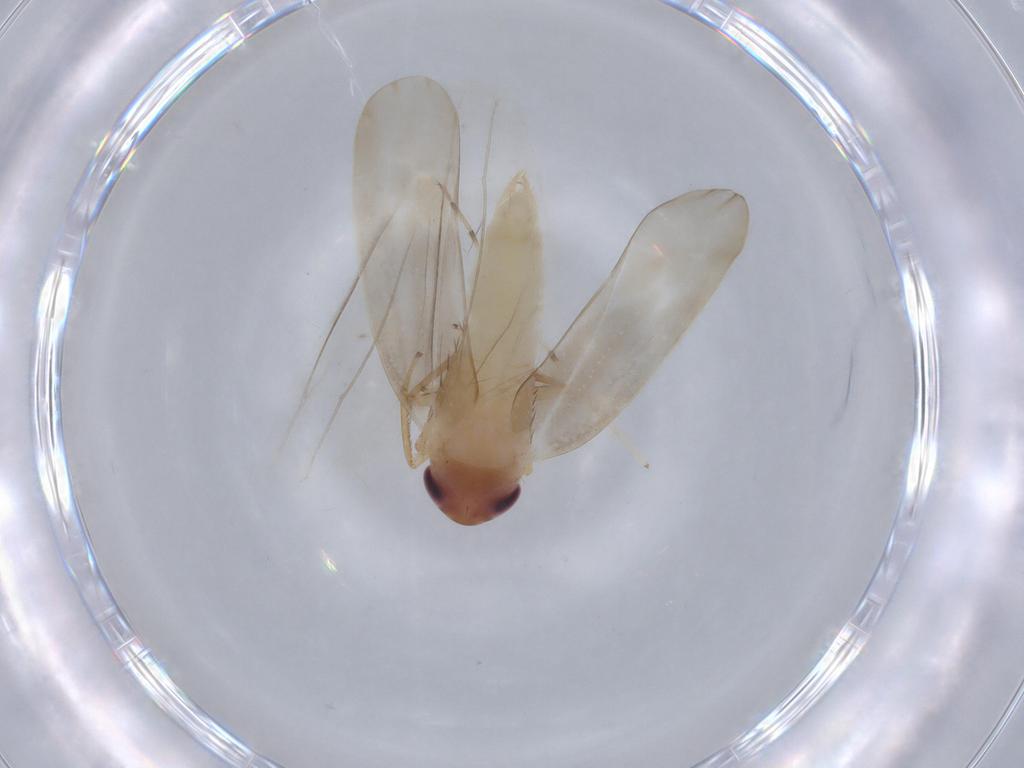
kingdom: Animalia
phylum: Arthropoda
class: Insecta
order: Hemiptera
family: Cicadellidae
